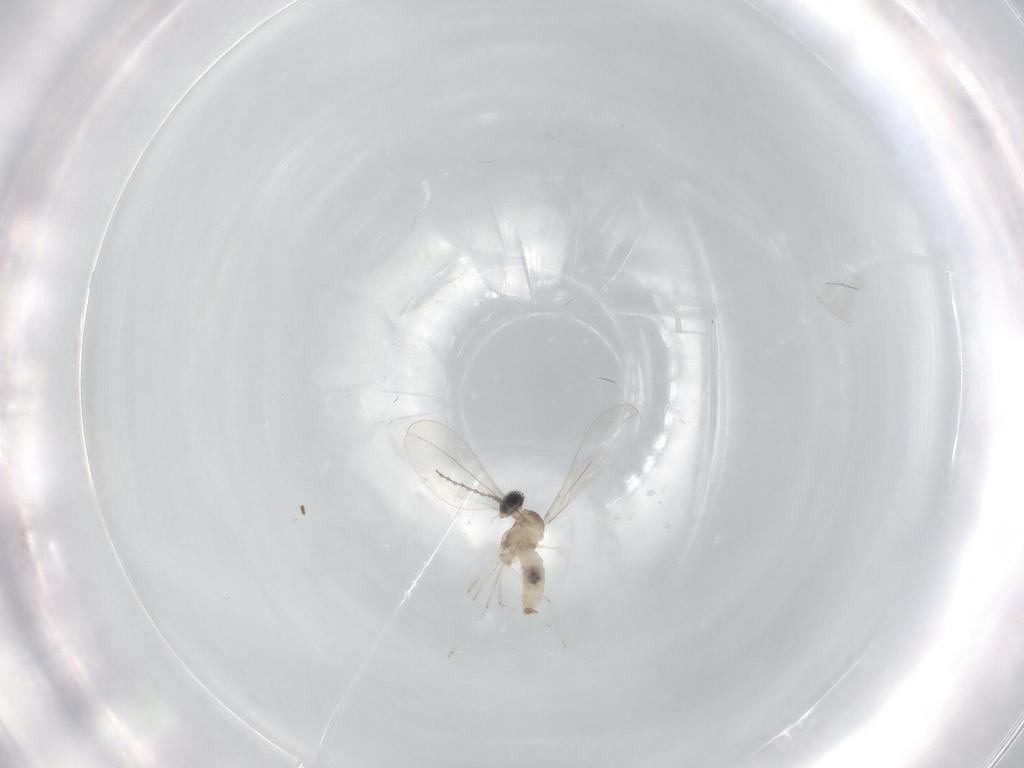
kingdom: Animalia
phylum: Arthropoda
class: Insecta
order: Diptera
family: Cecidomyiidae
